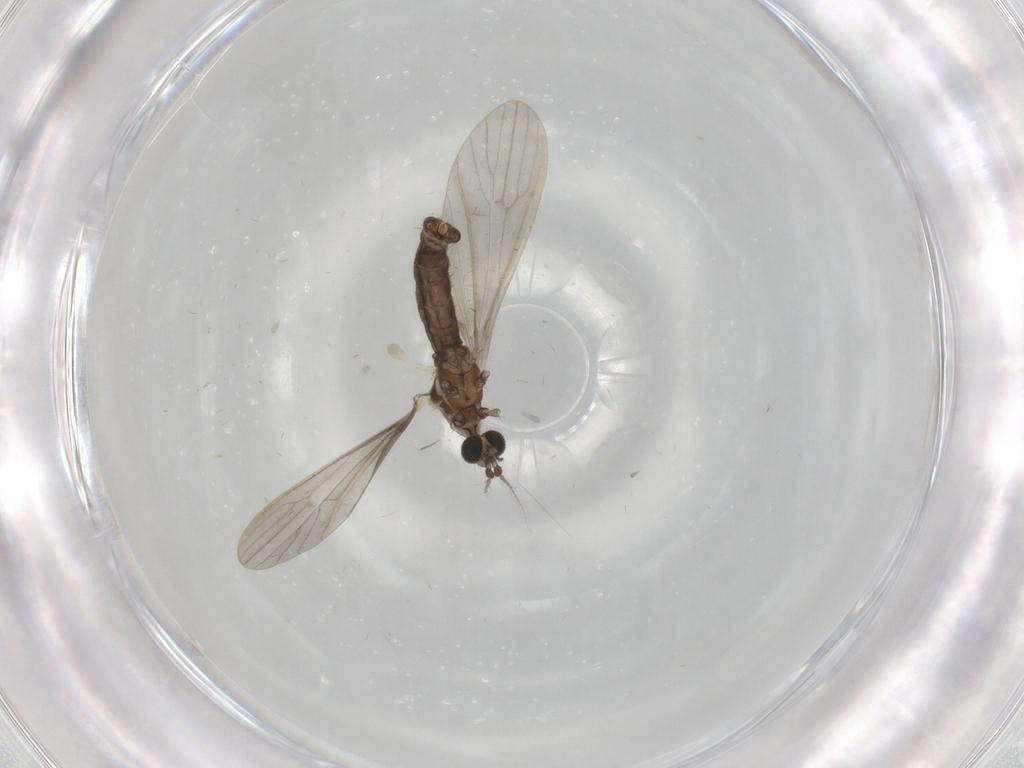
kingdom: Animalia
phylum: Arthropoda
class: Insecta
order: Diptera
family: Limoniidae
